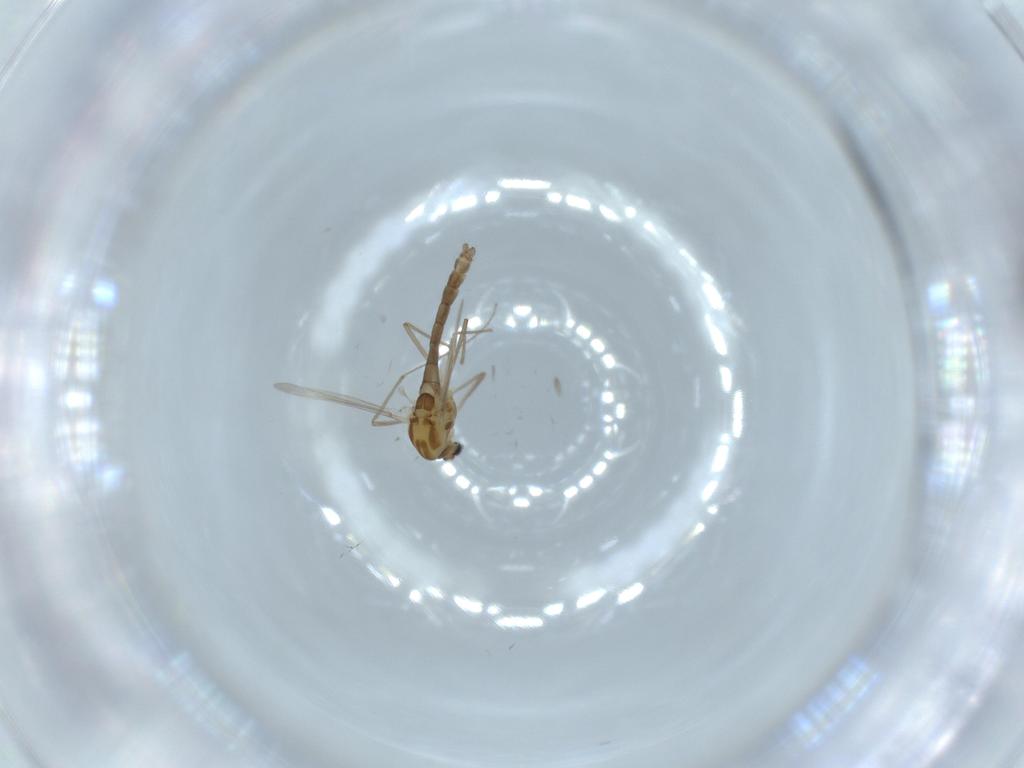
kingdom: Animalia
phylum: Arthropoda
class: Insecta
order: Diptera
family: Chironomidae
